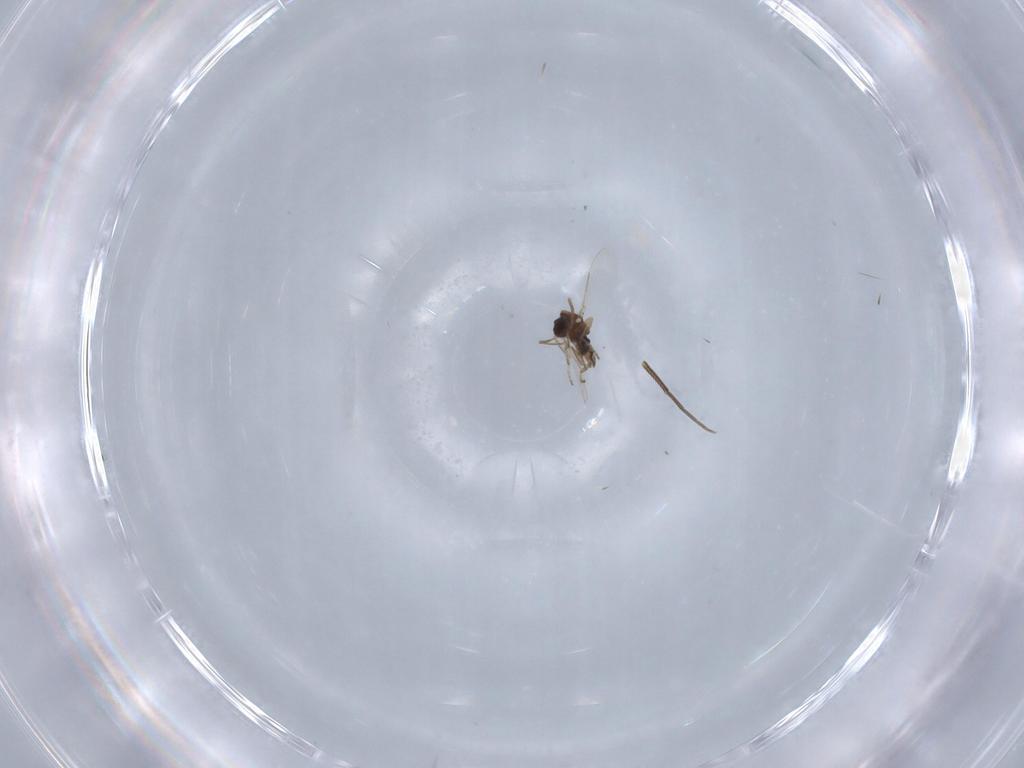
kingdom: Animalia
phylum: Arthropoda
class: Insecta
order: Diptera
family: Ceratopogonidae
